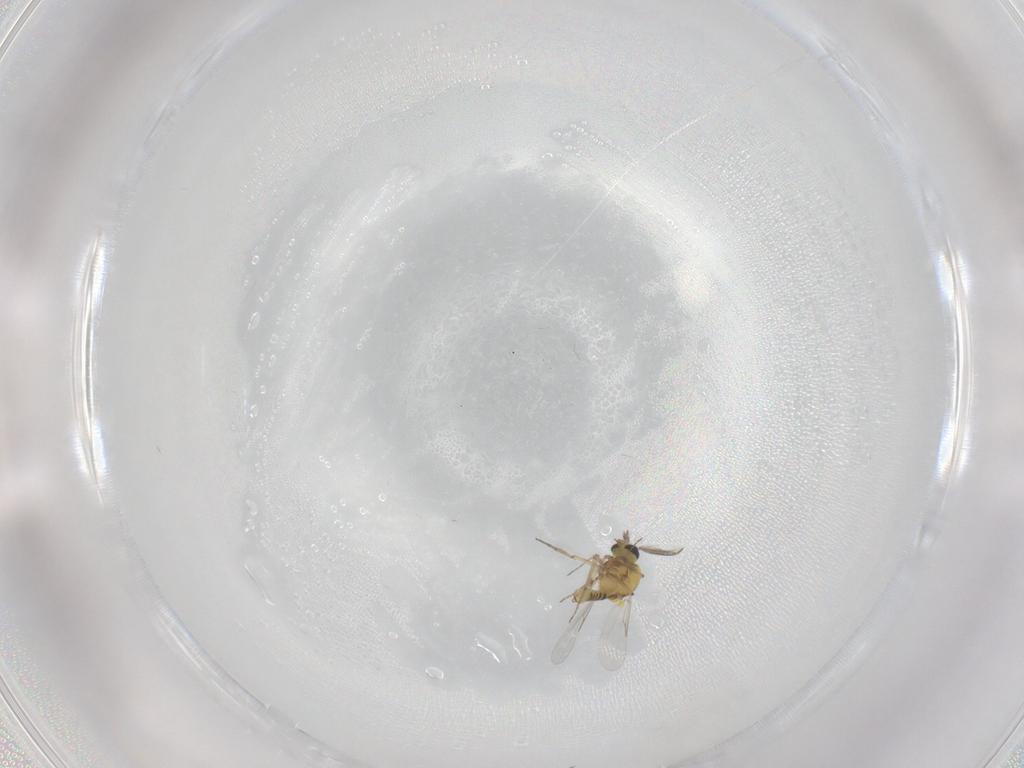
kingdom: Animalia
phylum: Arthropoda
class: Insecta
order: Diptera
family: Ceratopogonidae
